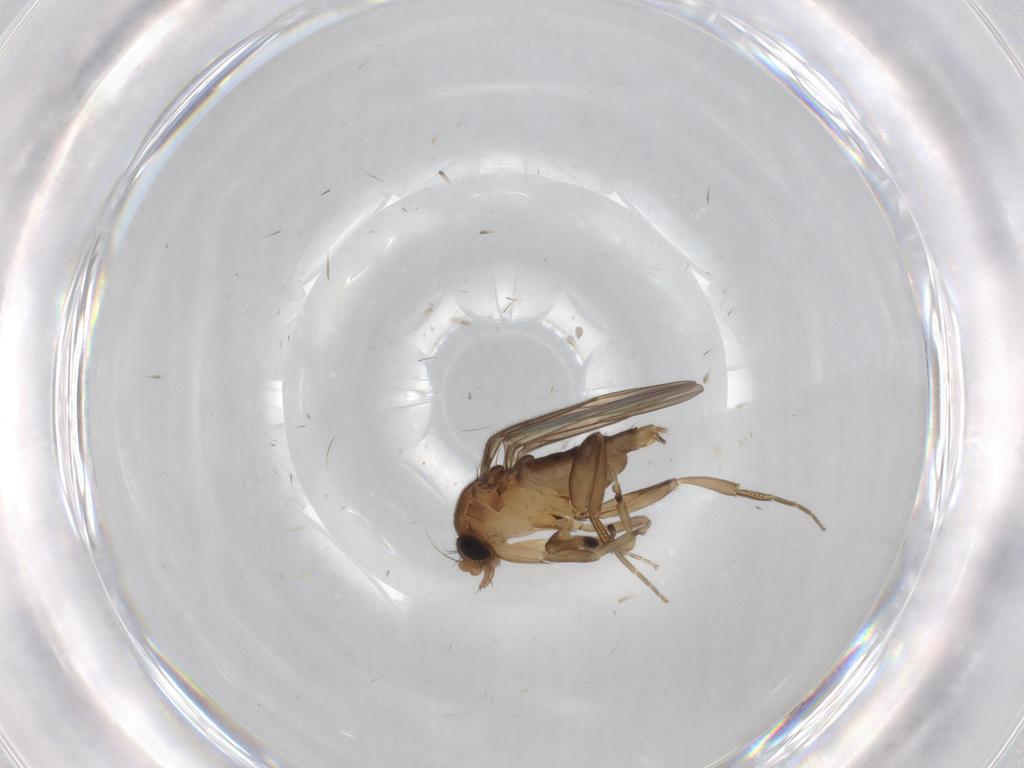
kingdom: Animalia
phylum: Arthropoda
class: Insecta
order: Diptera
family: Phoridae
